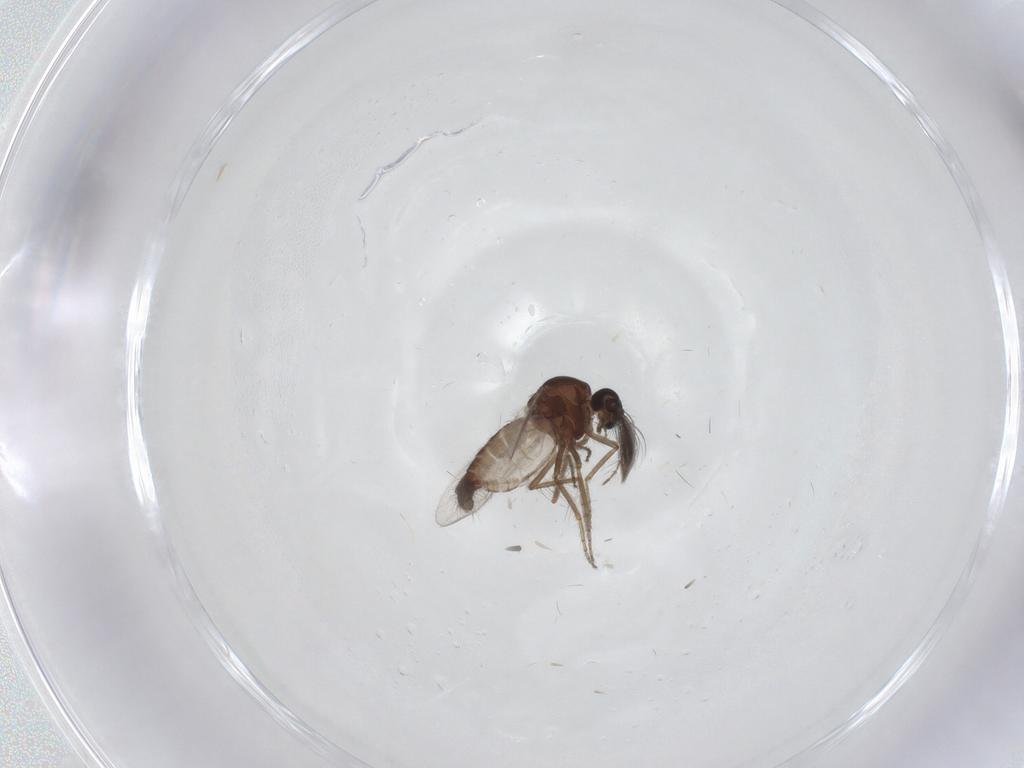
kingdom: Animalia
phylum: Arthropoda
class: Insecta
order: Diptera
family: Ceratopogonidae
